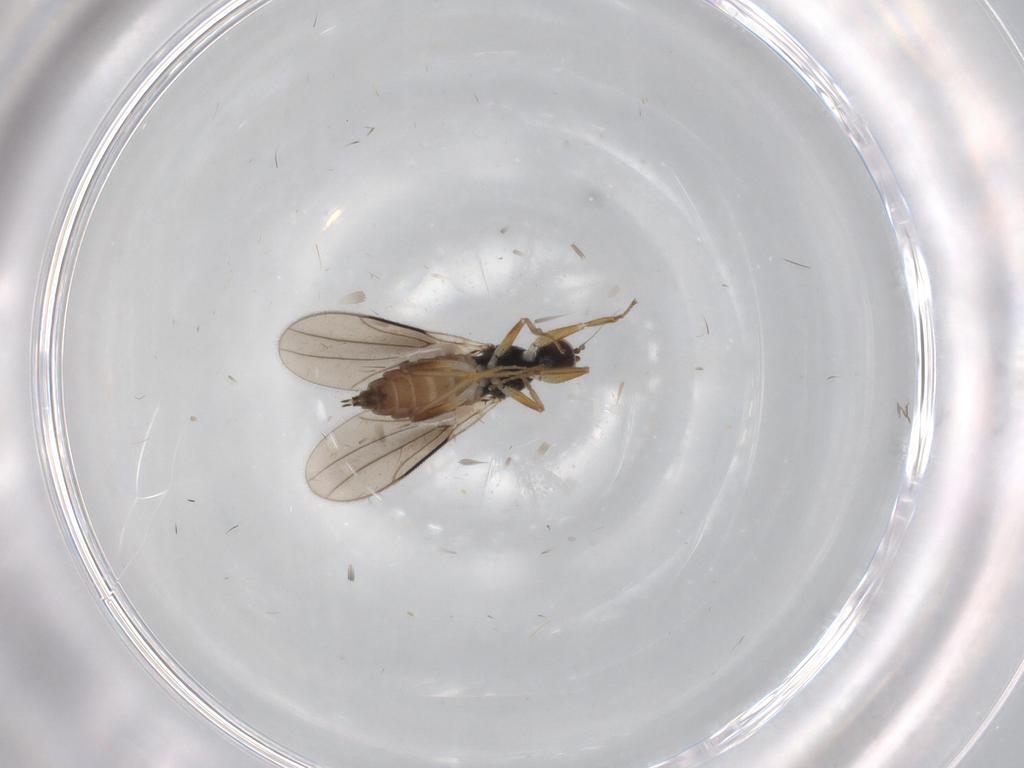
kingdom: Animalia
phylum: Arthropoda
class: Insecta
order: Diptera
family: Hybotidae
